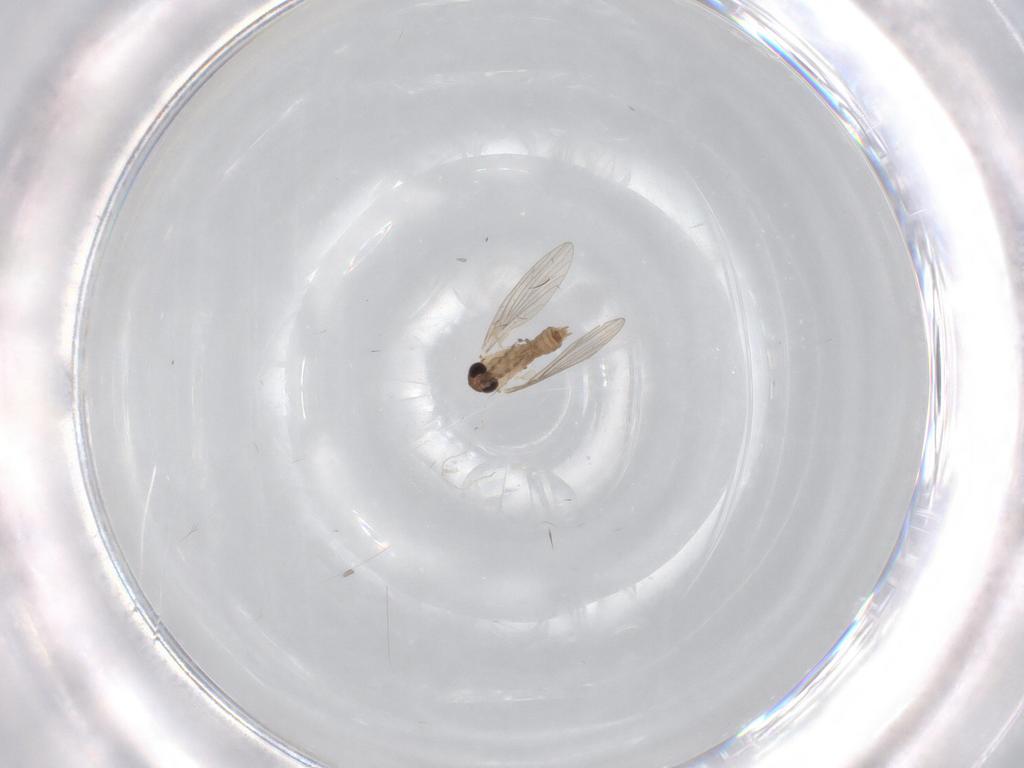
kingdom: Animalia
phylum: Arthropoda
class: Insecta
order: Diptera
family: Psychodidae
